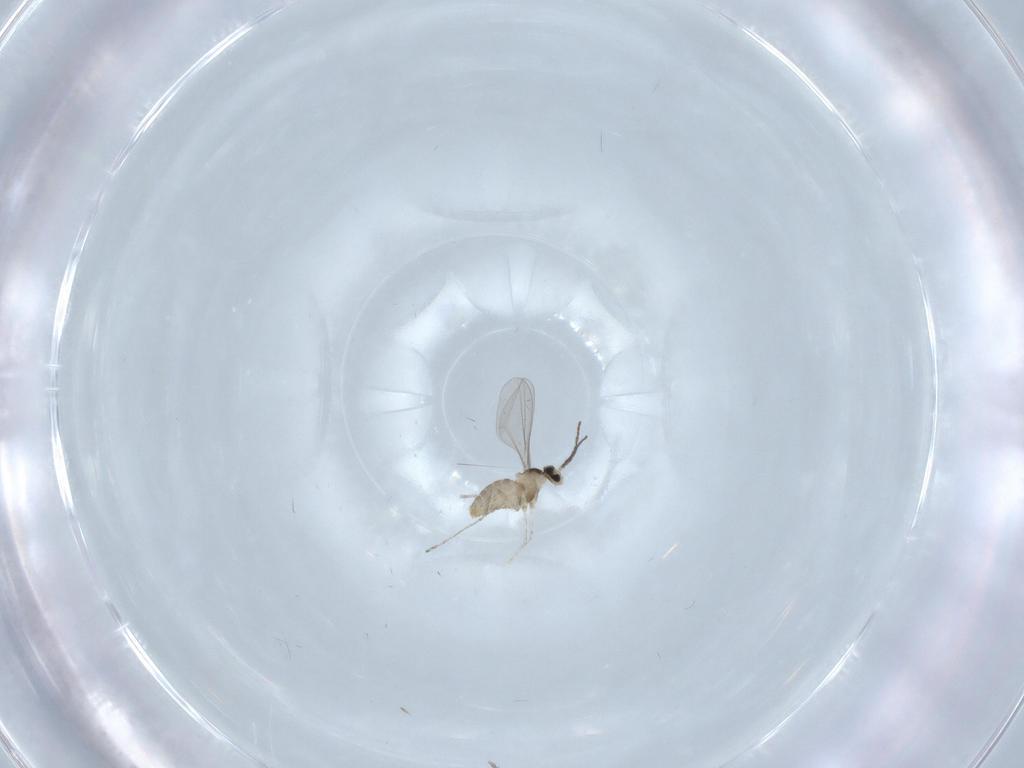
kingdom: Animalia
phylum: Arthropoda
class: Insecta
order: Diptera
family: Cecidomyiidae
